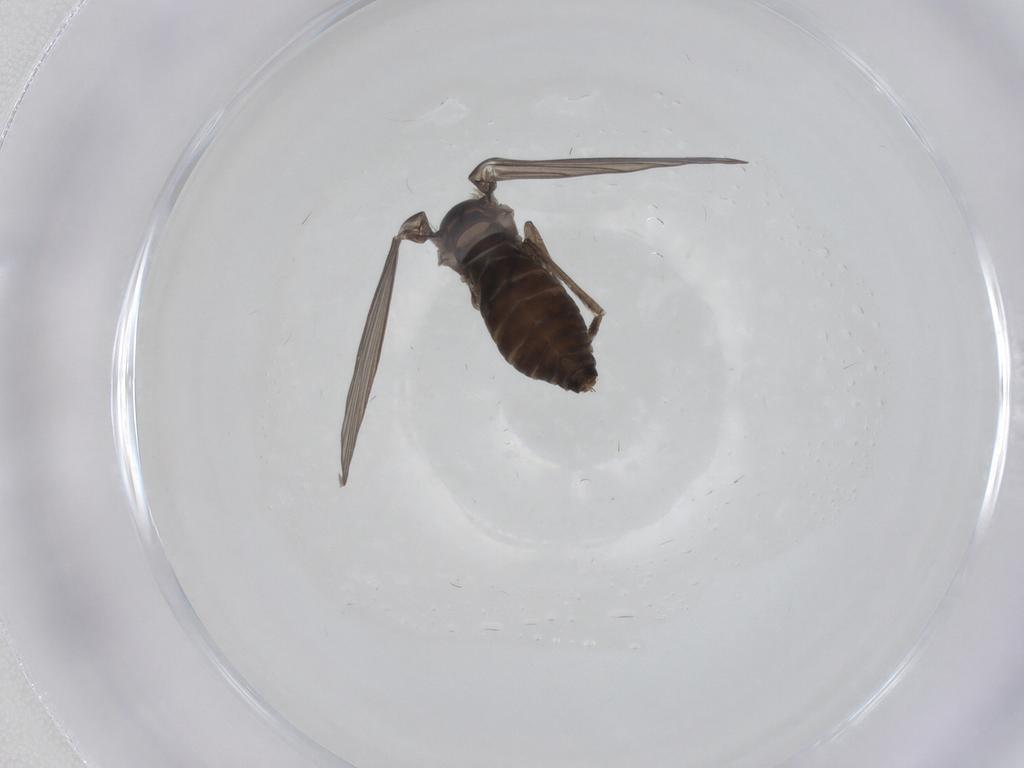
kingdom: Animalia
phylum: Arthropoda
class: Insecta
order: Diptera
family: Psychodidae
